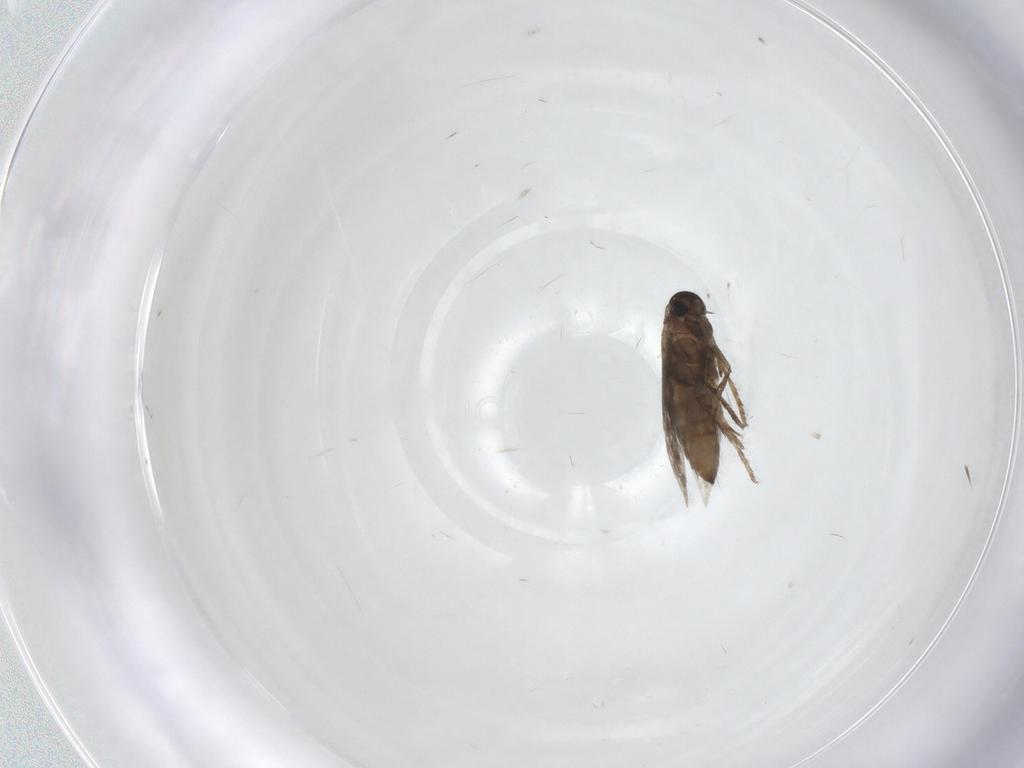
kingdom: Animalia
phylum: Arthropoda
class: Insecta
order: Lepidoptera
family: Heliozelidae
